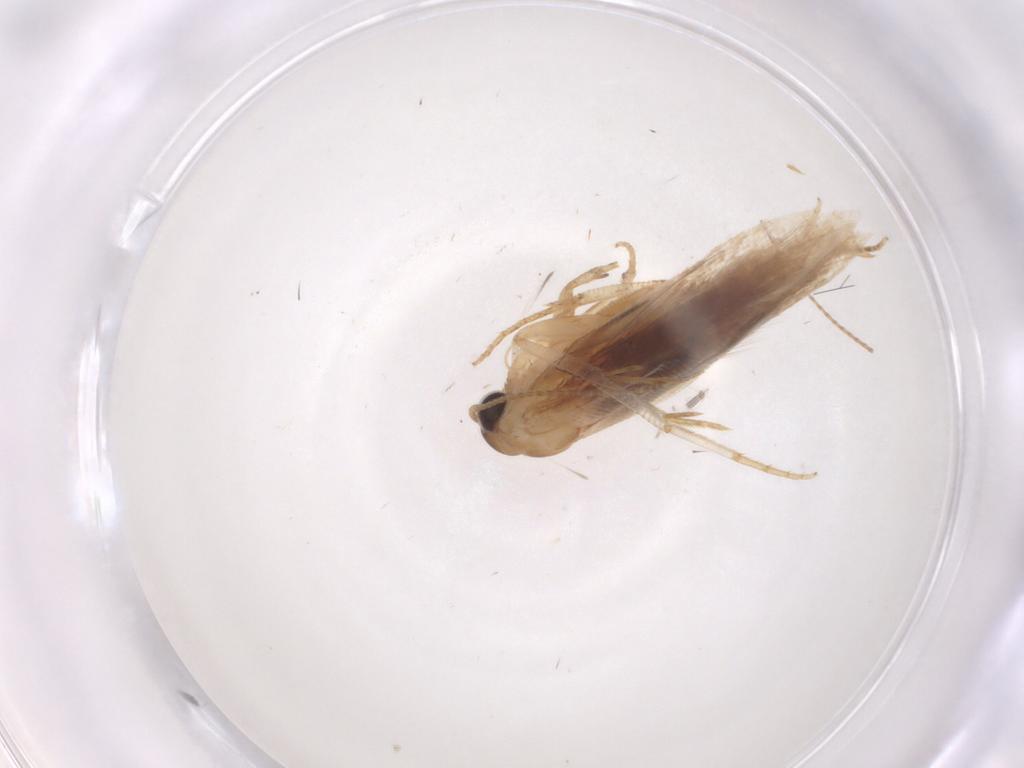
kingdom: Animalia
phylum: Arthropoda
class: Insecta
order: Lepidoptera
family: Gelechiidae
